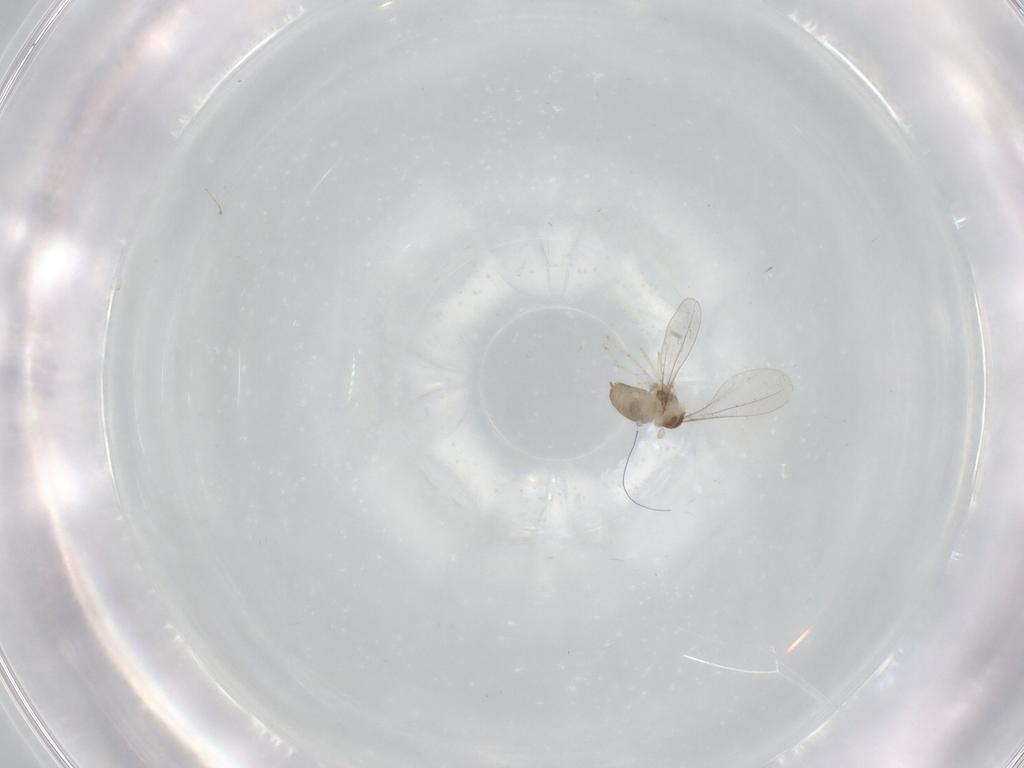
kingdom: Animalia
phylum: Arthropoda
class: Insecta
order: Diptera
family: Cecidomyiidae
